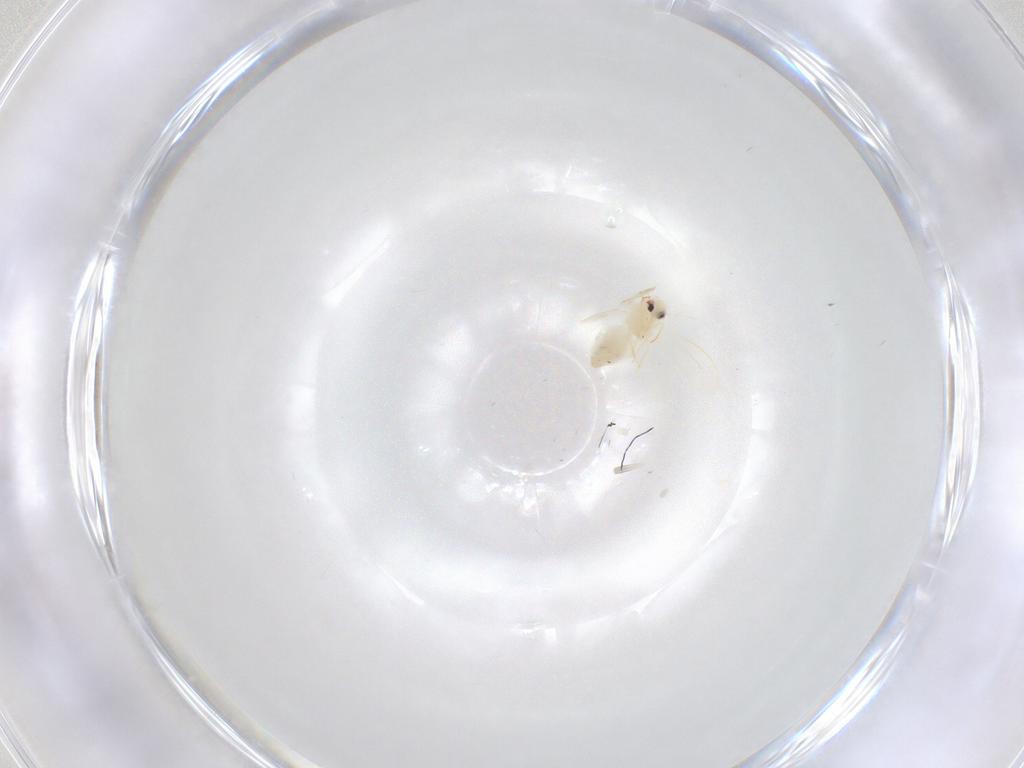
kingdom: Animalia
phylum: Arthropoda
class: Insecta
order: Hemiptera
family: Aleyrodidae
